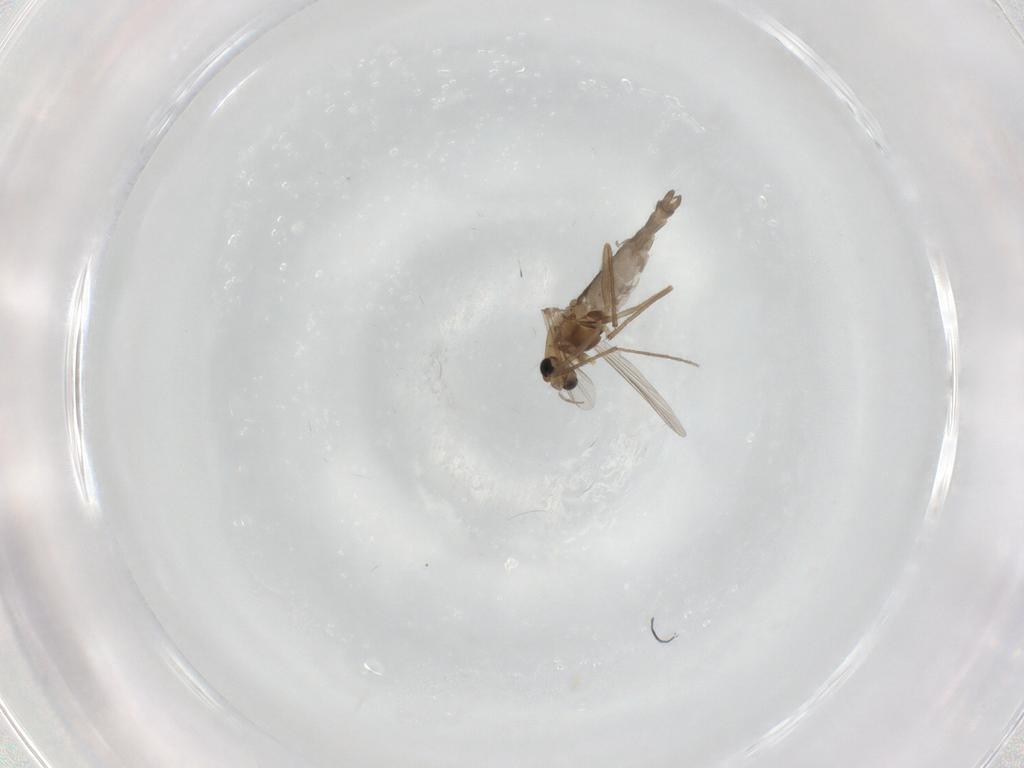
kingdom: Animalia
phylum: Arthropoda
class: Insecta
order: Diptera
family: Chironomidae
